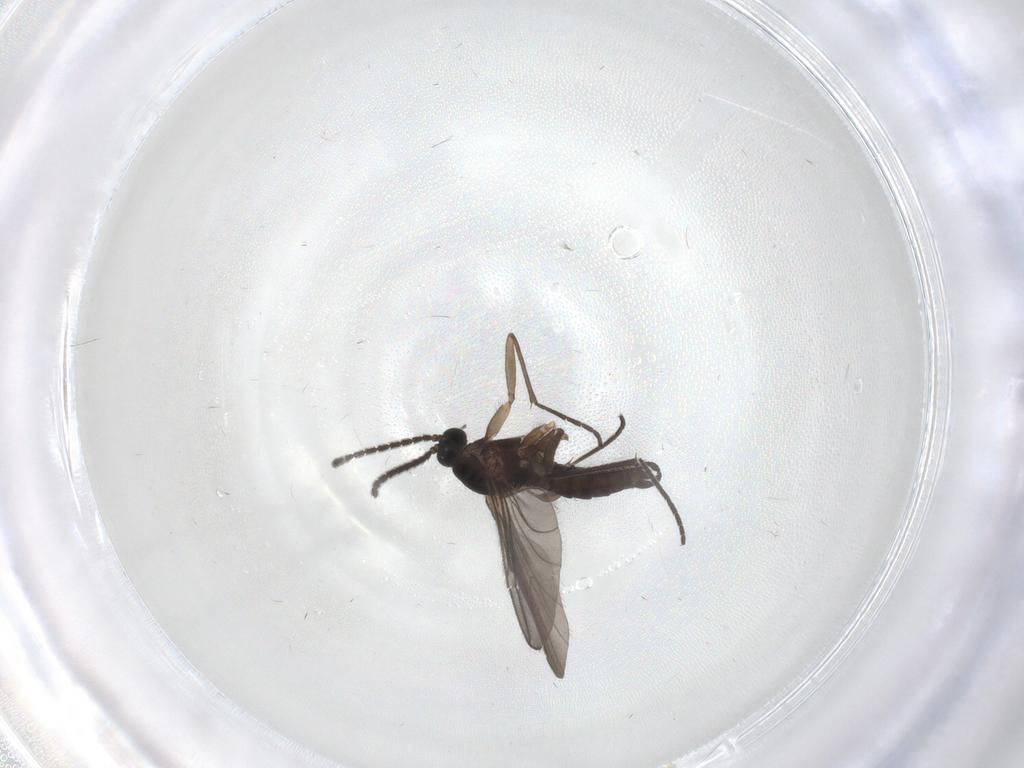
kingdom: Animalia
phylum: Arthropoda
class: Insecta
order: Diptera
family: Sciaridae
